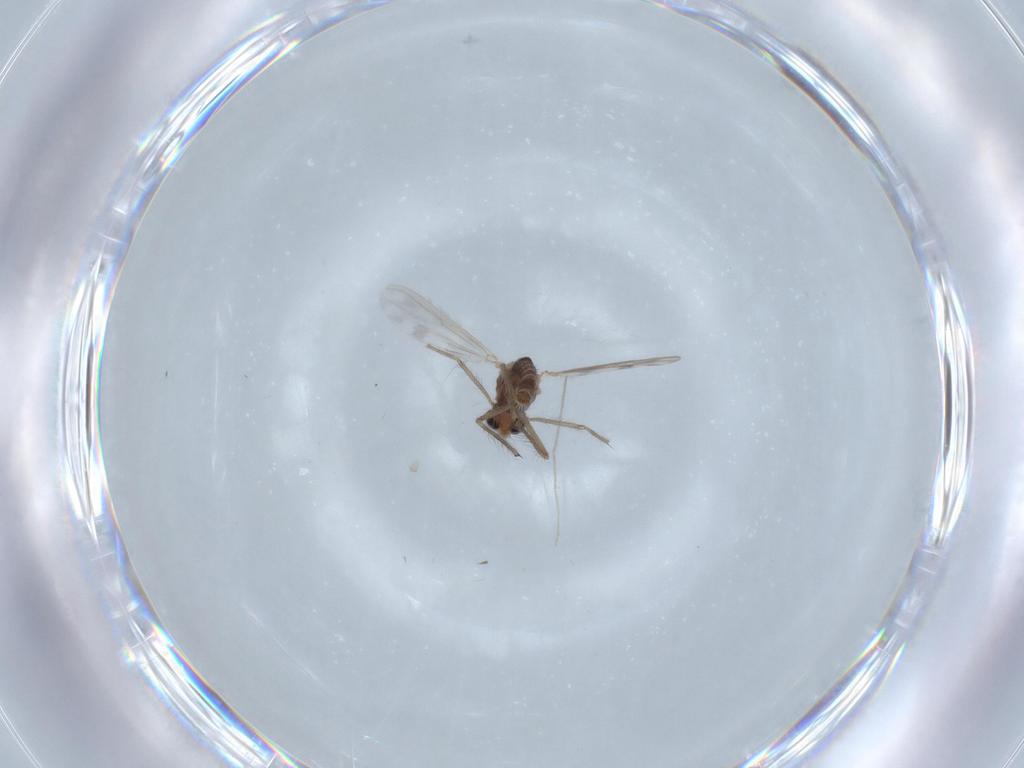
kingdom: Animalia
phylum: Arthropoda
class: Insecta
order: Diptera
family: Chironomidae
